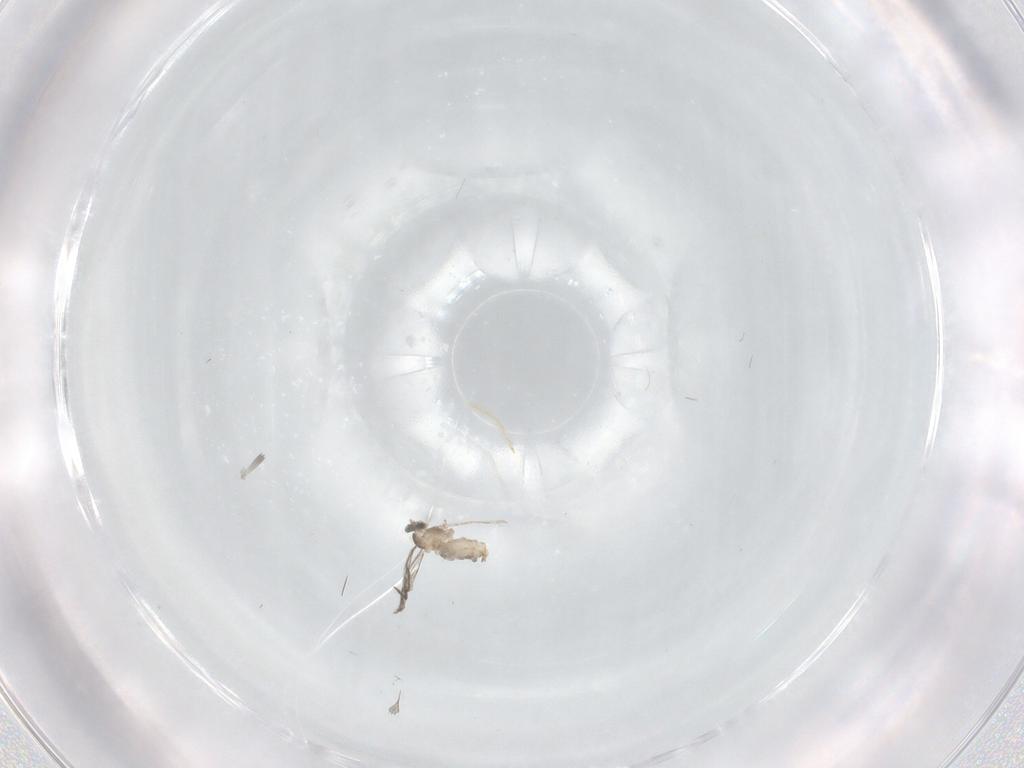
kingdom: Animalia
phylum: Arthropoda
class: Insecta
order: Diptera
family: Cecidomyiidae
